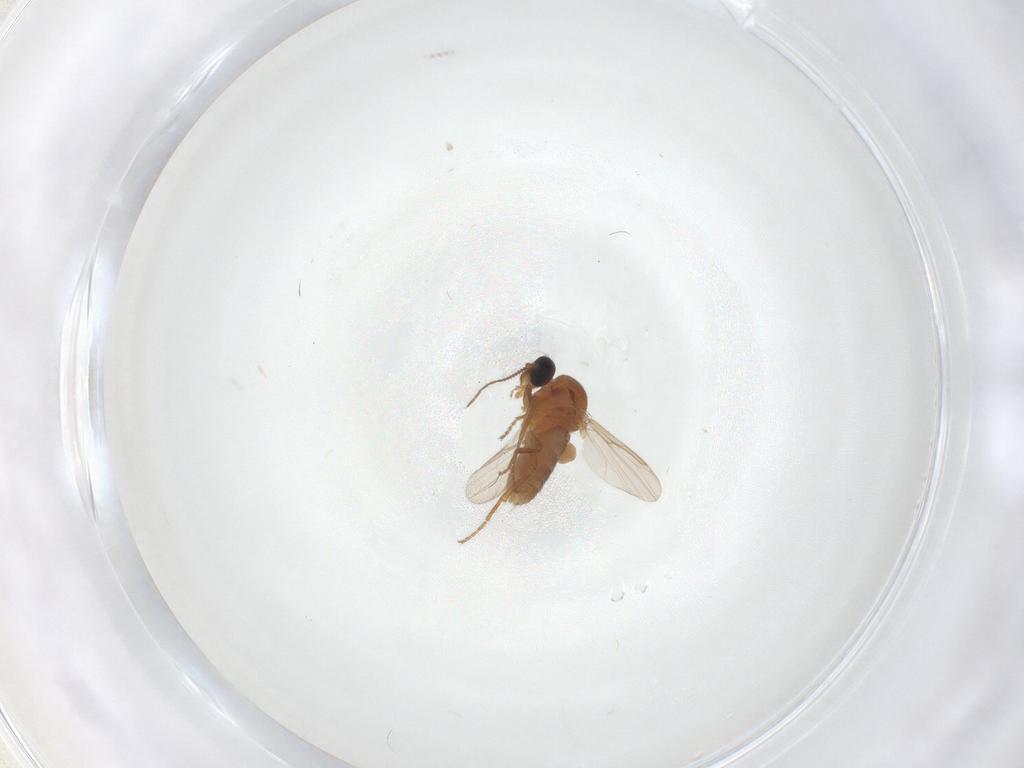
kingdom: Animalia
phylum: Arthropoda
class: Insecta
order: Diptera
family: Ceratopogonidae
